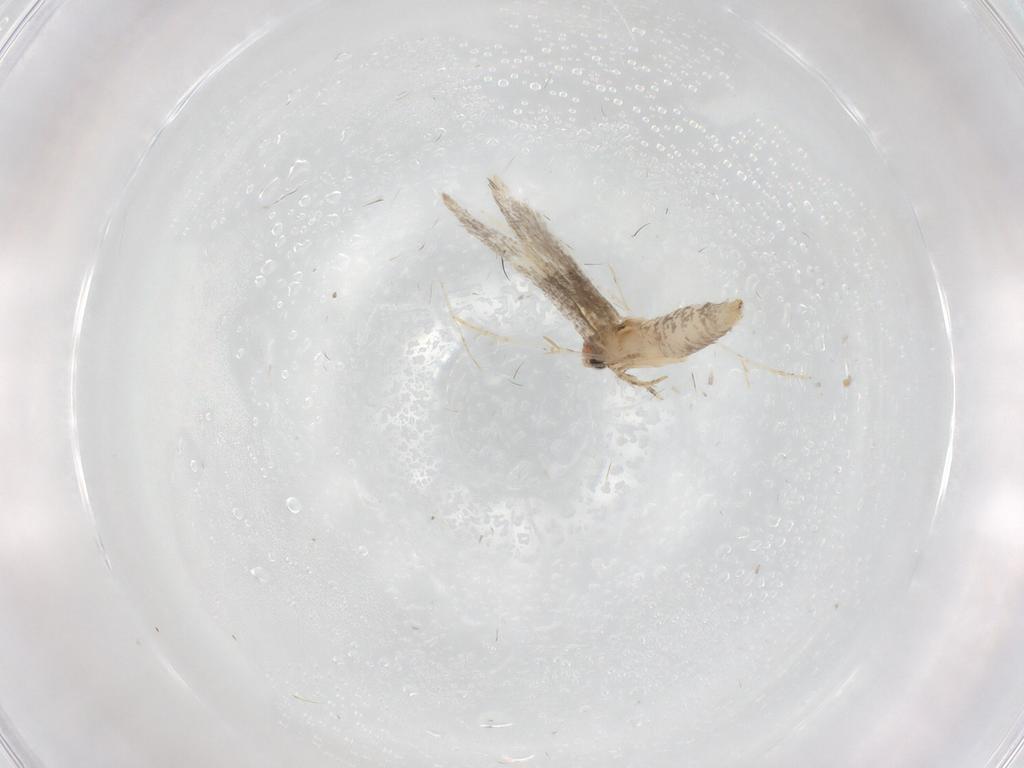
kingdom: Animalia
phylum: Arthropoda
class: Insecta
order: Lepidoptera
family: Tineidae
